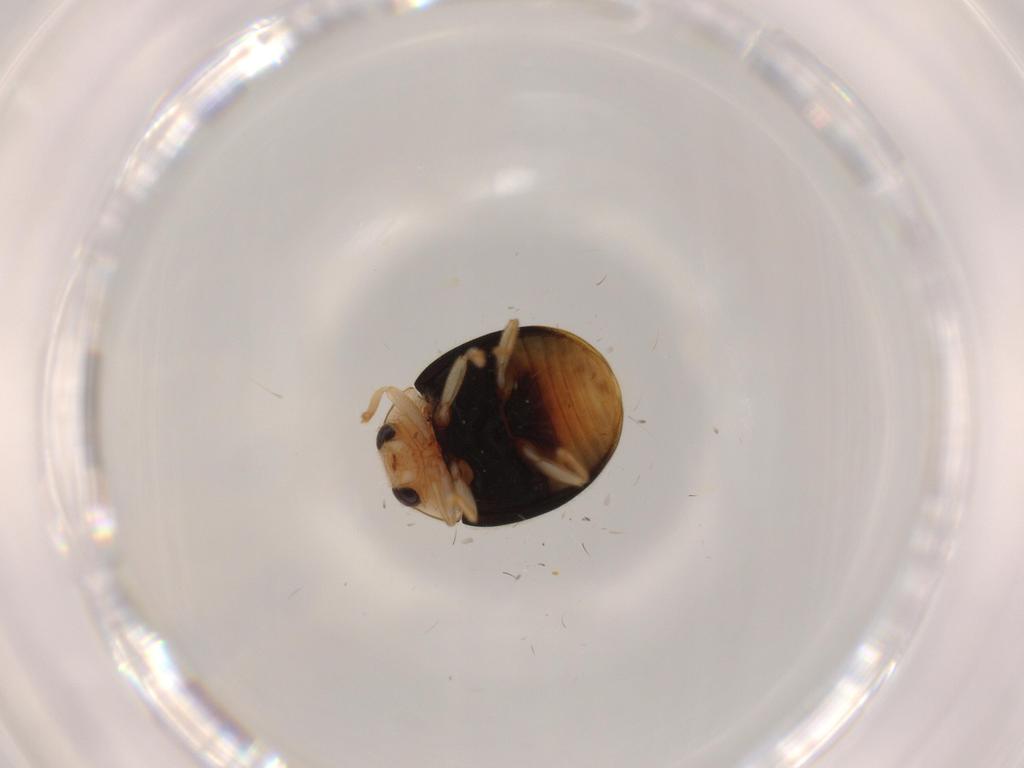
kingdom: Animalia
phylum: Arthropoda
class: Insecta
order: Coleoptera
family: Coccinellidae
